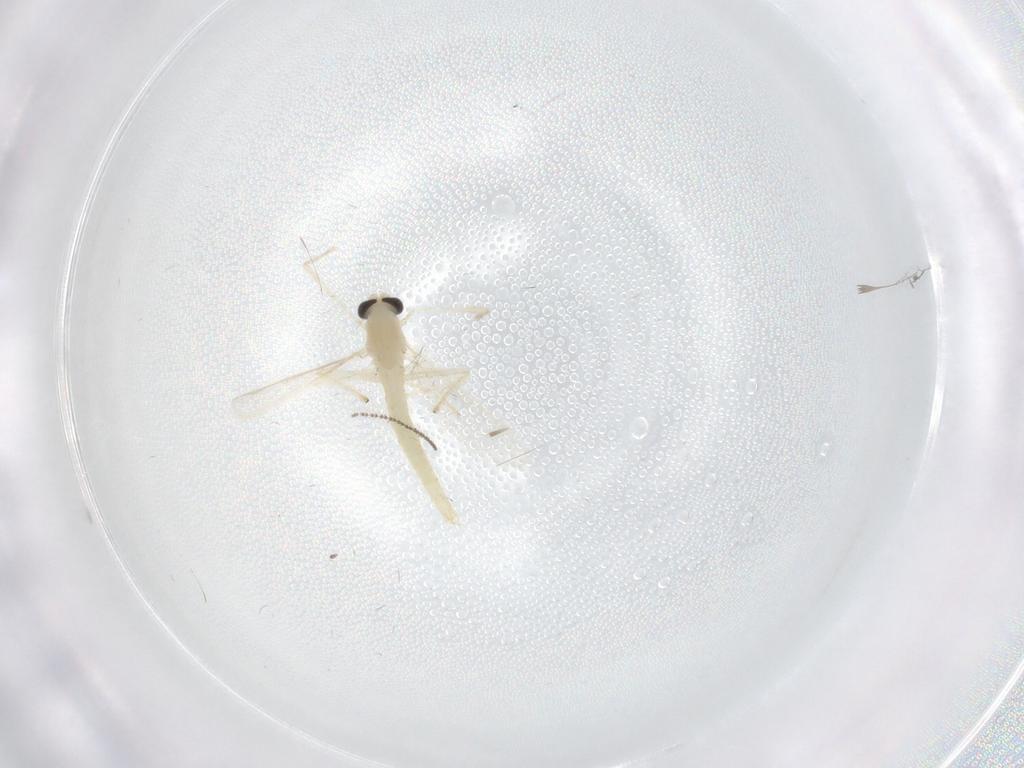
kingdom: Animalia
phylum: Arthropoda
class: Insecta
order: Diptera
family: Chironomidae
